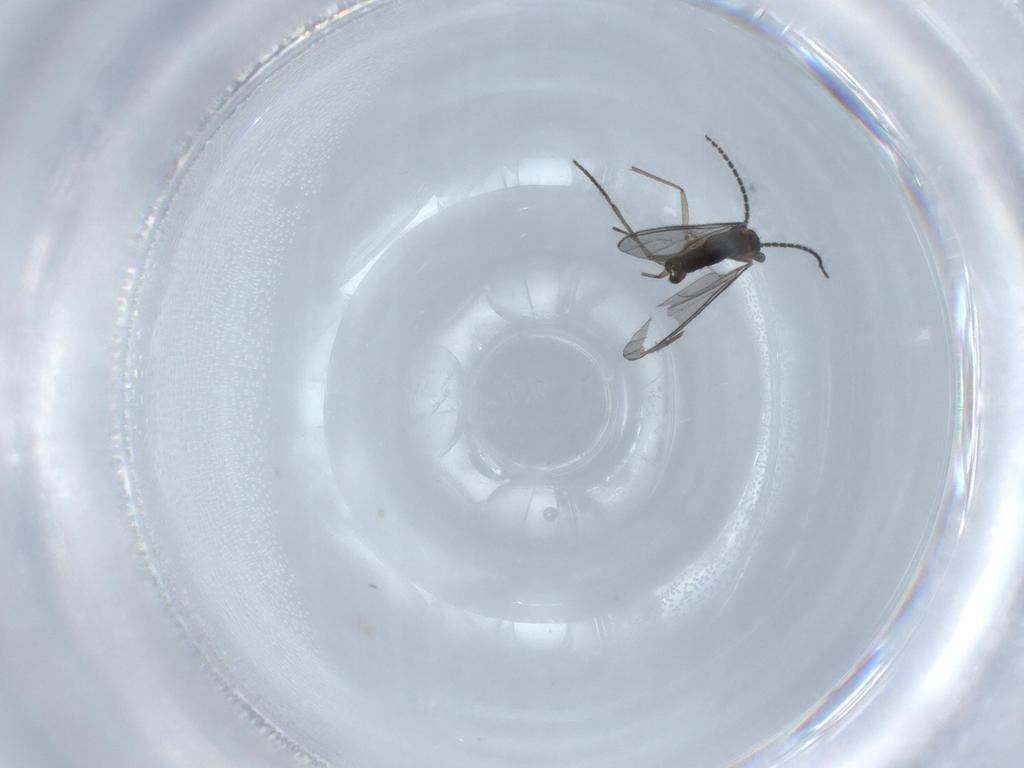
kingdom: Animalia
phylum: Arthropoda
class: Insecta
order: Diptera
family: Sciaridae
